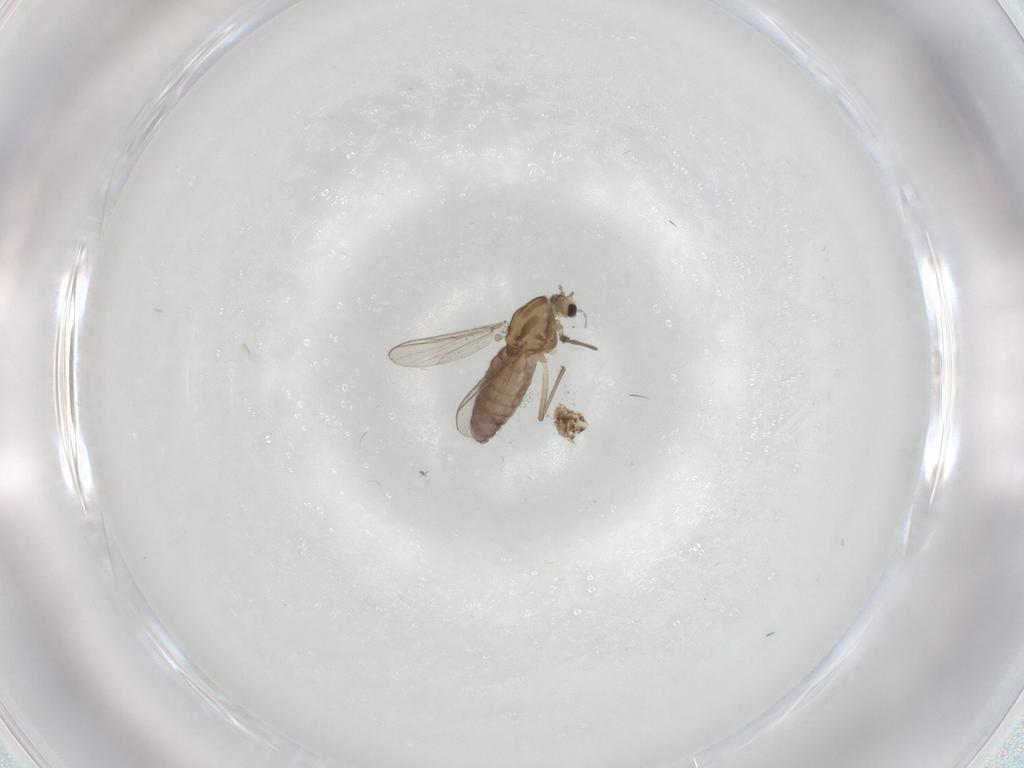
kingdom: Animalia
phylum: Arthropoda
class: Insecta
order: Diptera
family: Chironomidae
